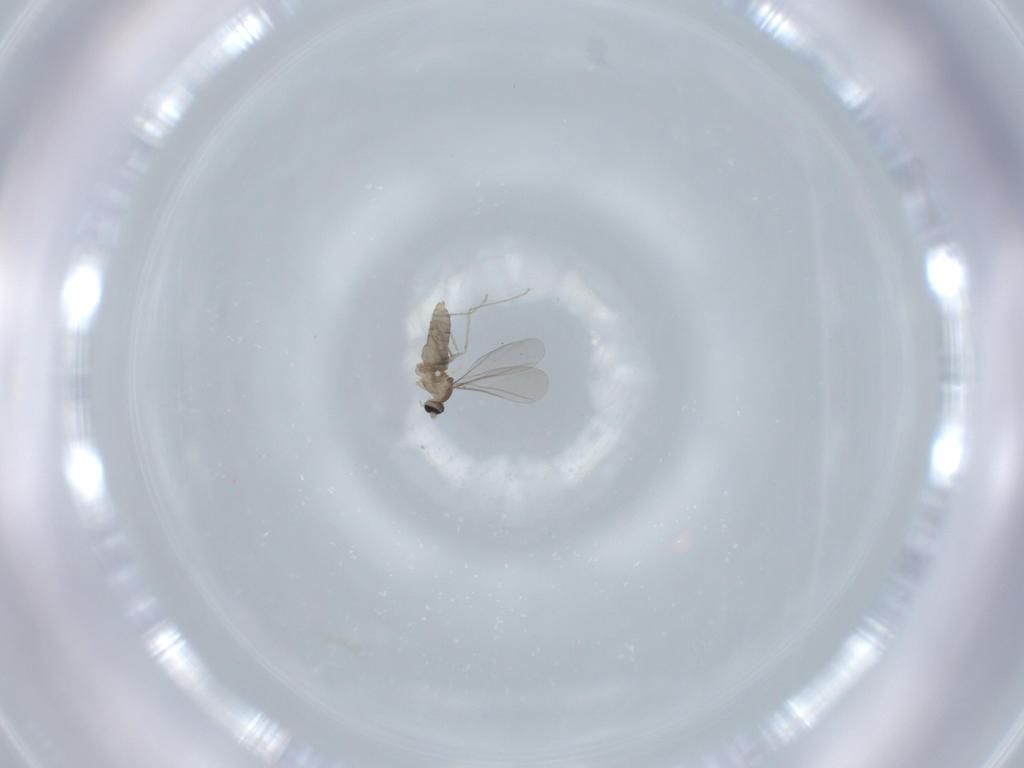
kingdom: Animalia
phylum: Arthropoda
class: Insecta
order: Diptera
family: Cecidomyiidae
